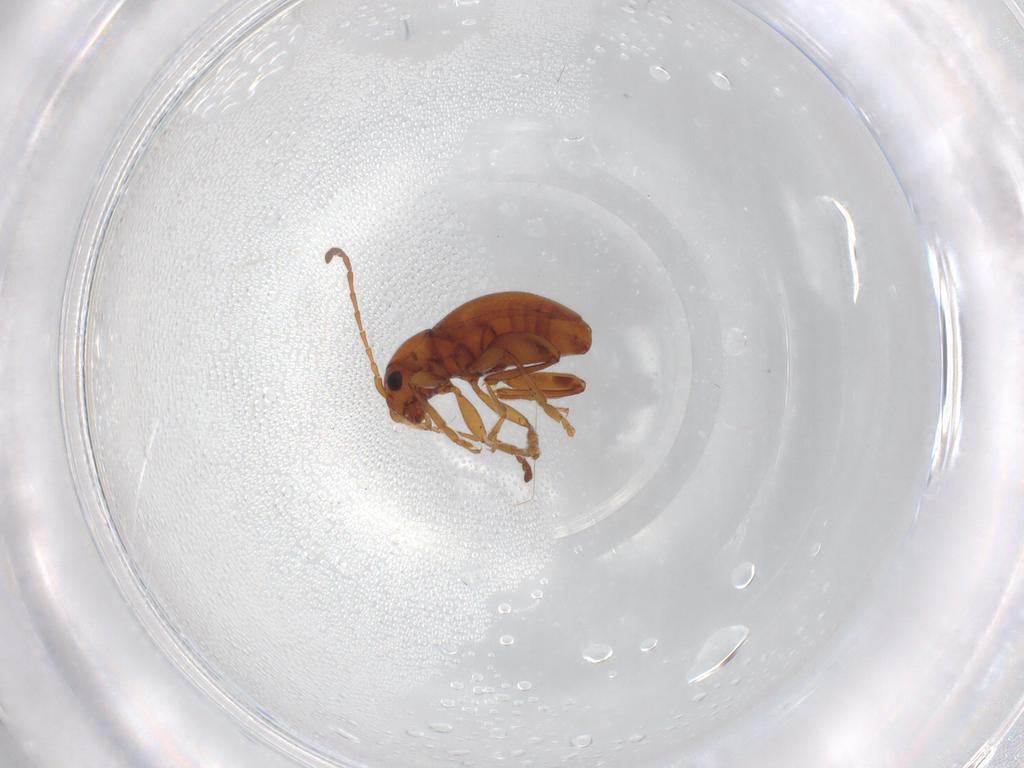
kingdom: Animalia
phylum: Arthropoda
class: Insecta
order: Coleoptera
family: Chrysomelidae
